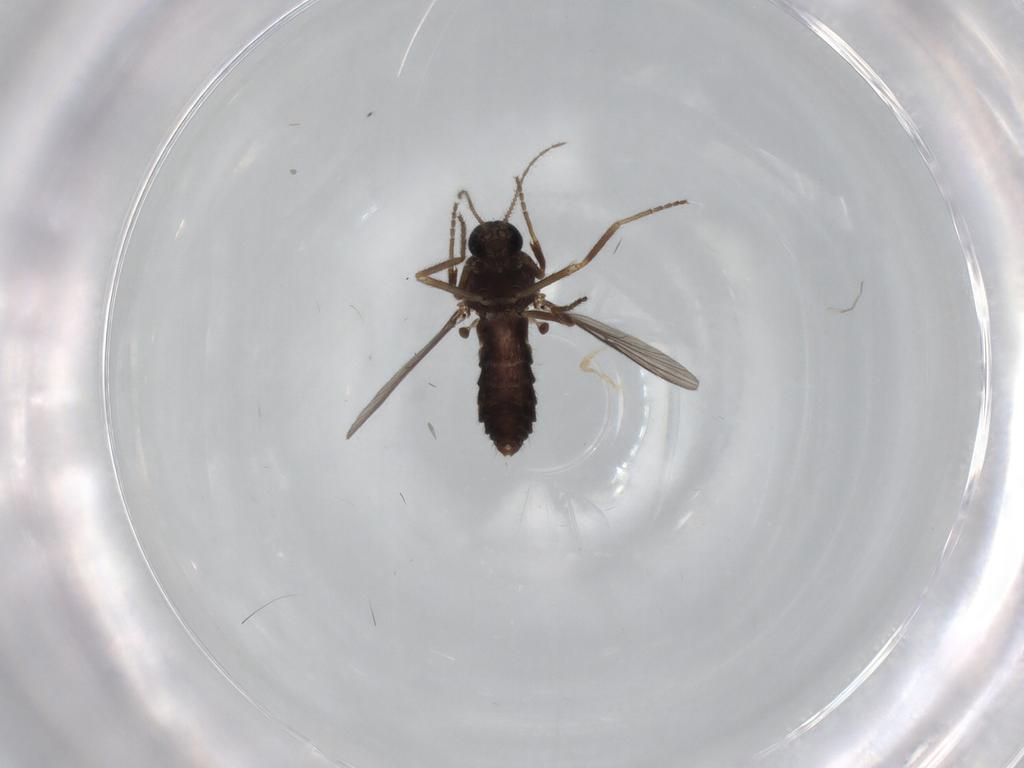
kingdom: Animalia
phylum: Arthropoda
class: Insecta
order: Diptera
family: Ceratopogonidae
